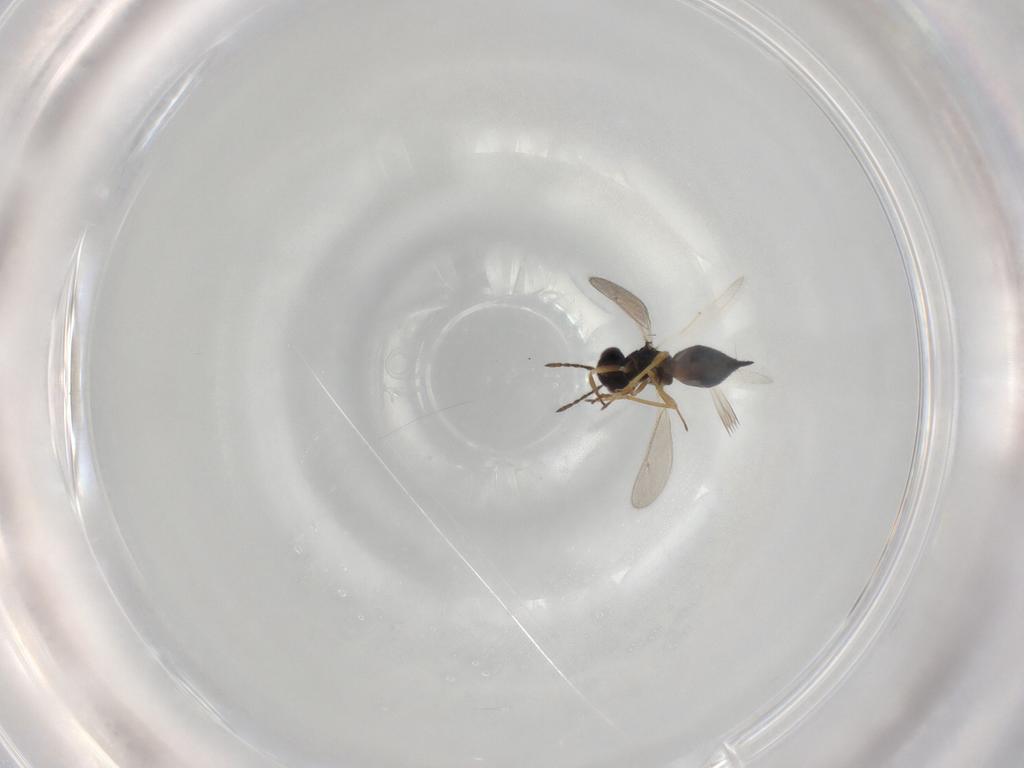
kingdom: Animalia
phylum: Arthropoda
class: Insecta
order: Hymenoptera
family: Eulophidae
